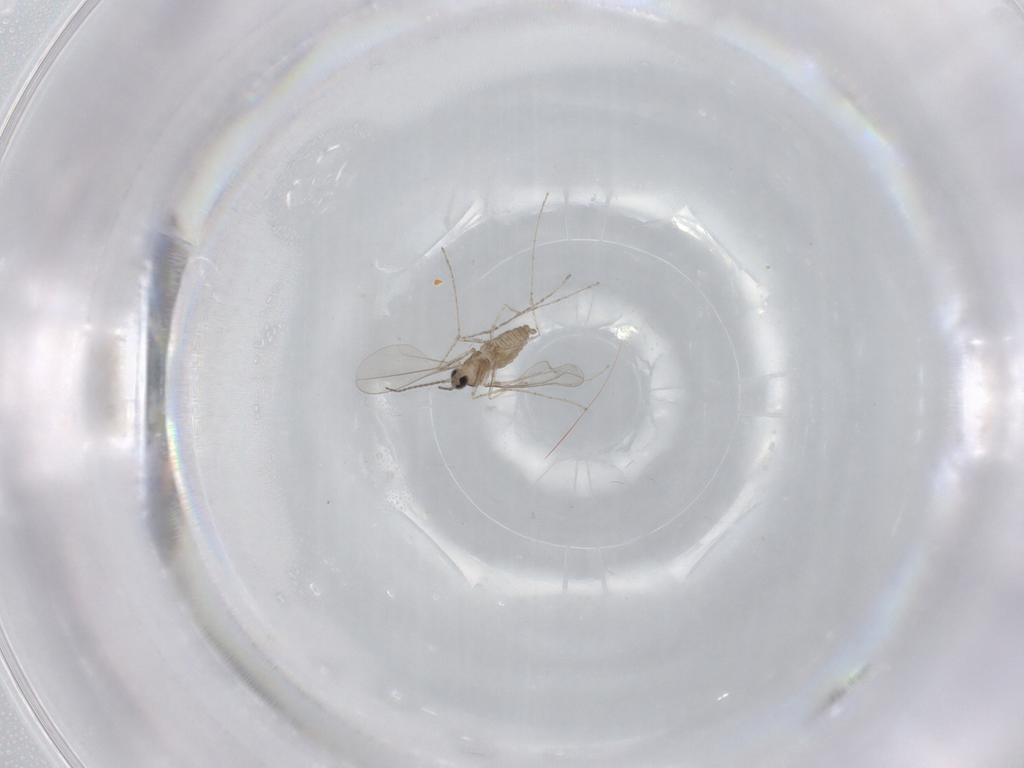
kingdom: Animalia
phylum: Arthropoda
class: Insecta
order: Diptera
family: Cecidomyiidae
